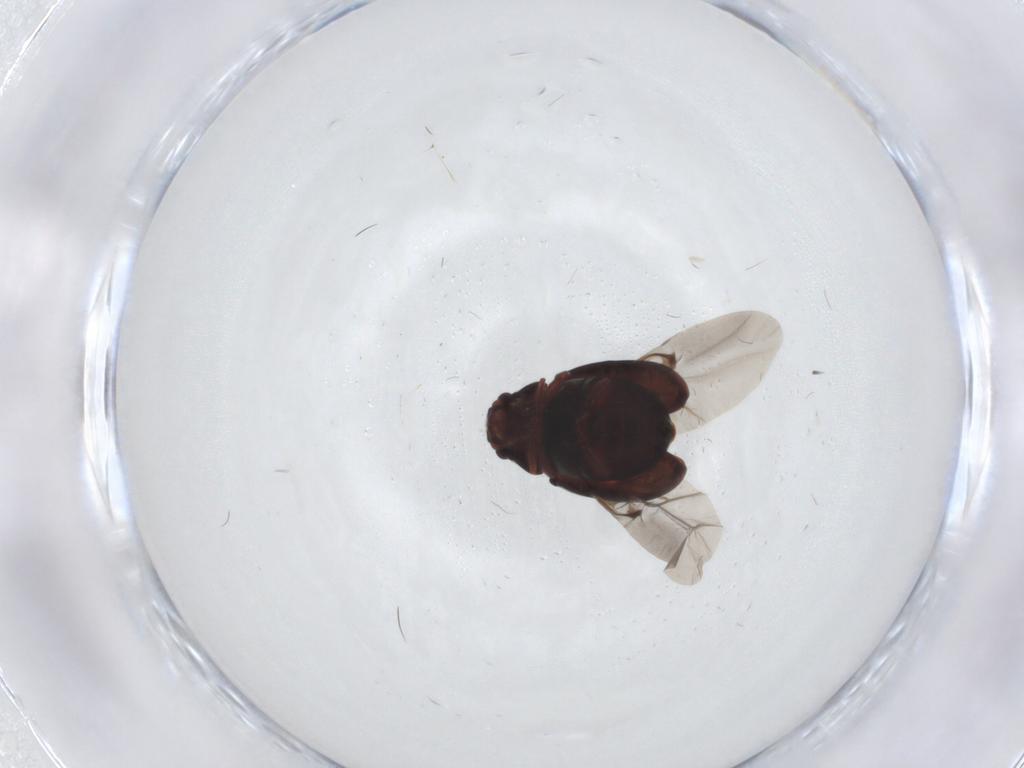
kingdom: Animalia
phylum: Arthropoda
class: Insecta
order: Coleoptera
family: Ptinidae
